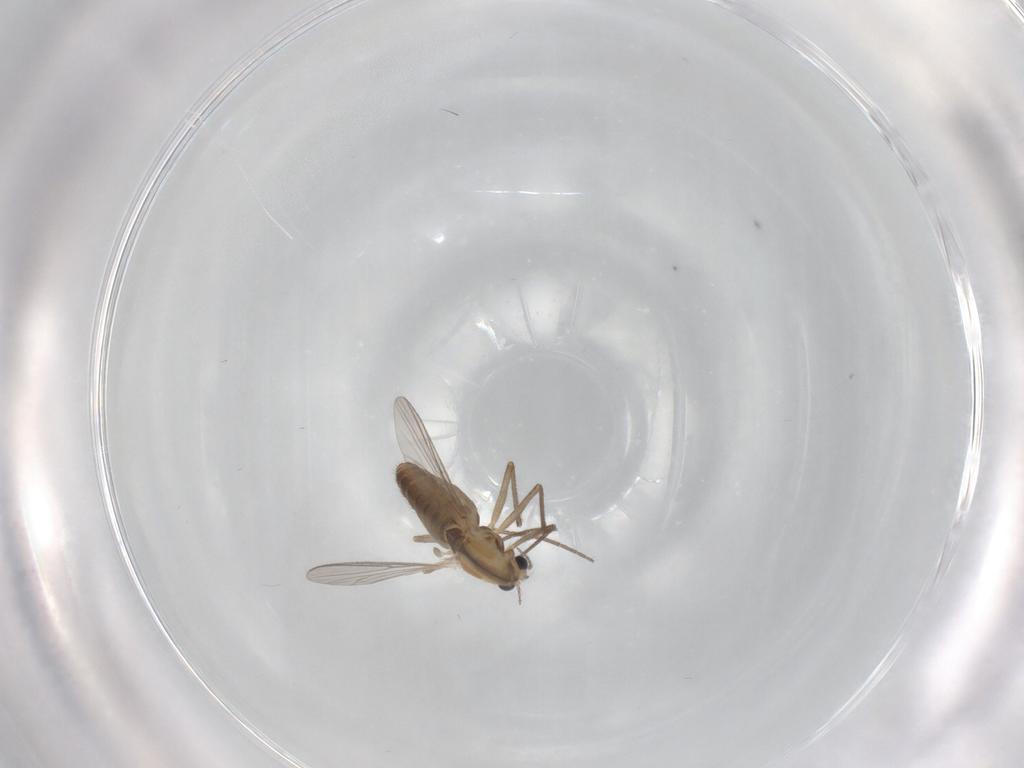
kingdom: Animalia
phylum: Arthropoda
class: Insecta
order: Diptera
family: Chironomidae
